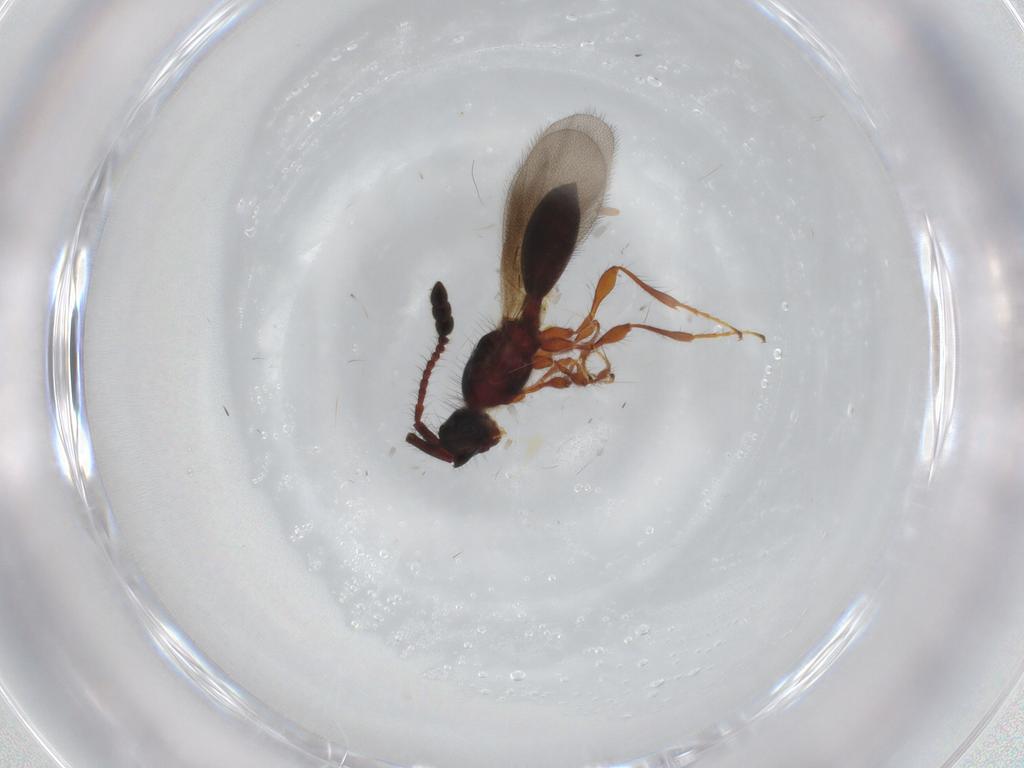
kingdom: Animalia
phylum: Arthropoda
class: Insecta
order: Hymenoptera
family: Diapriidae
